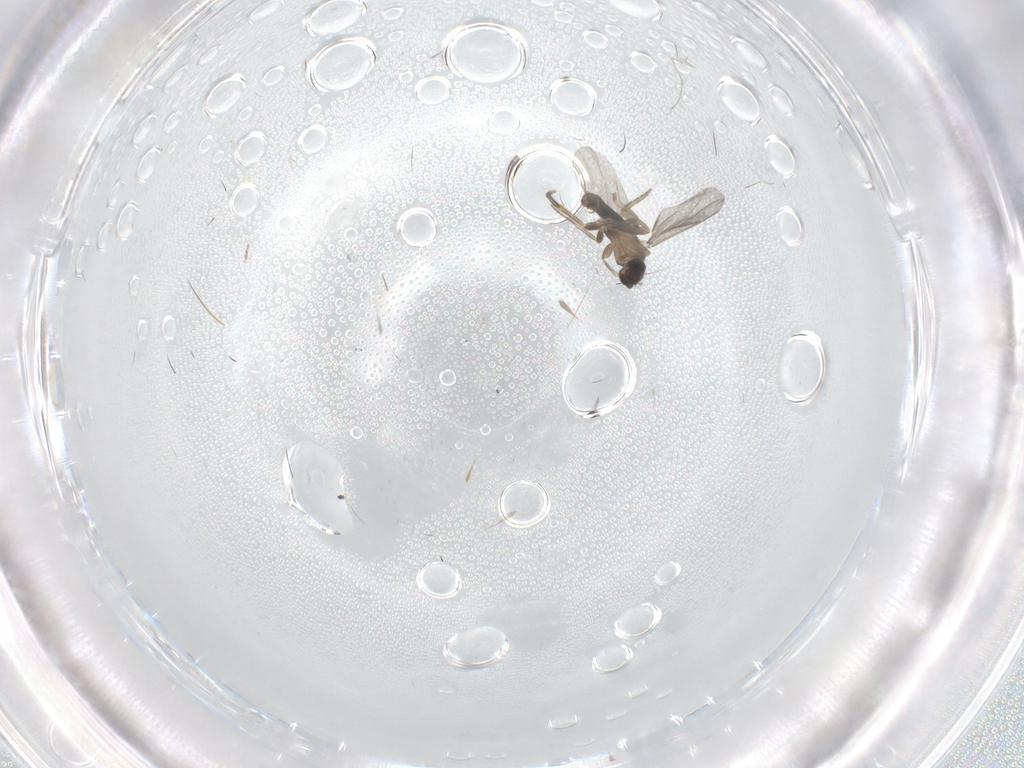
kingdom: Animalia
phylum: Arthropoda
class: Insecta
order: Diptera
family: Cecidomyiidae
